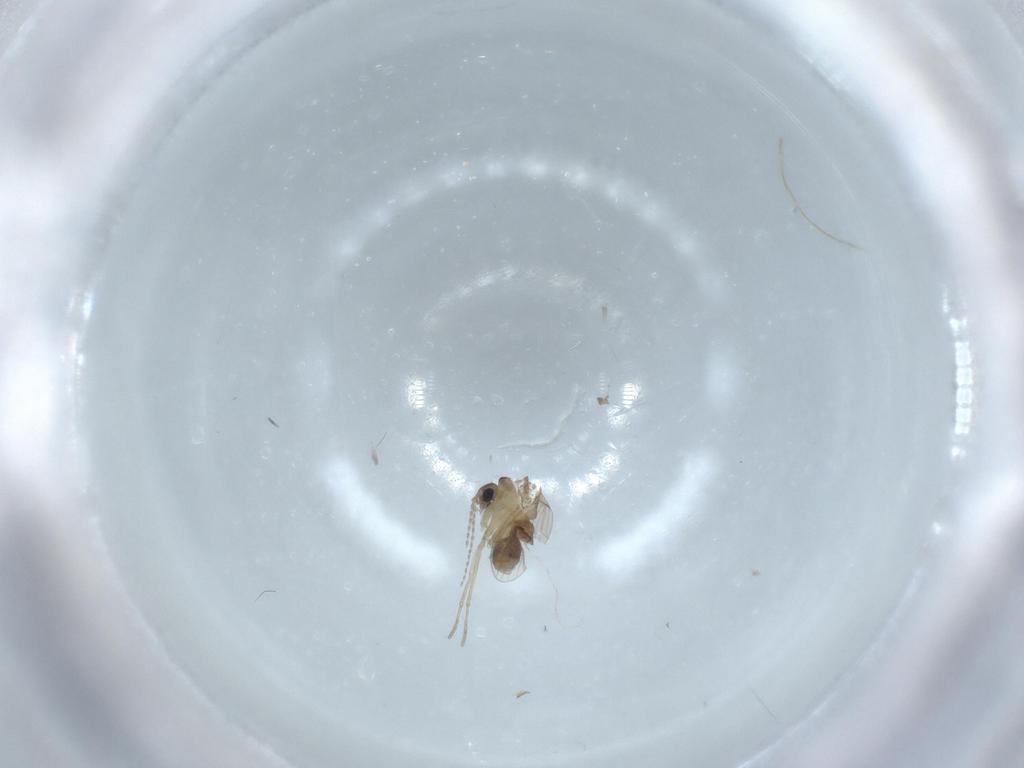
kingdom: Animalia
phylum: Arthropoda
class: Insecta
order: Diptera
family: Psychodidae
